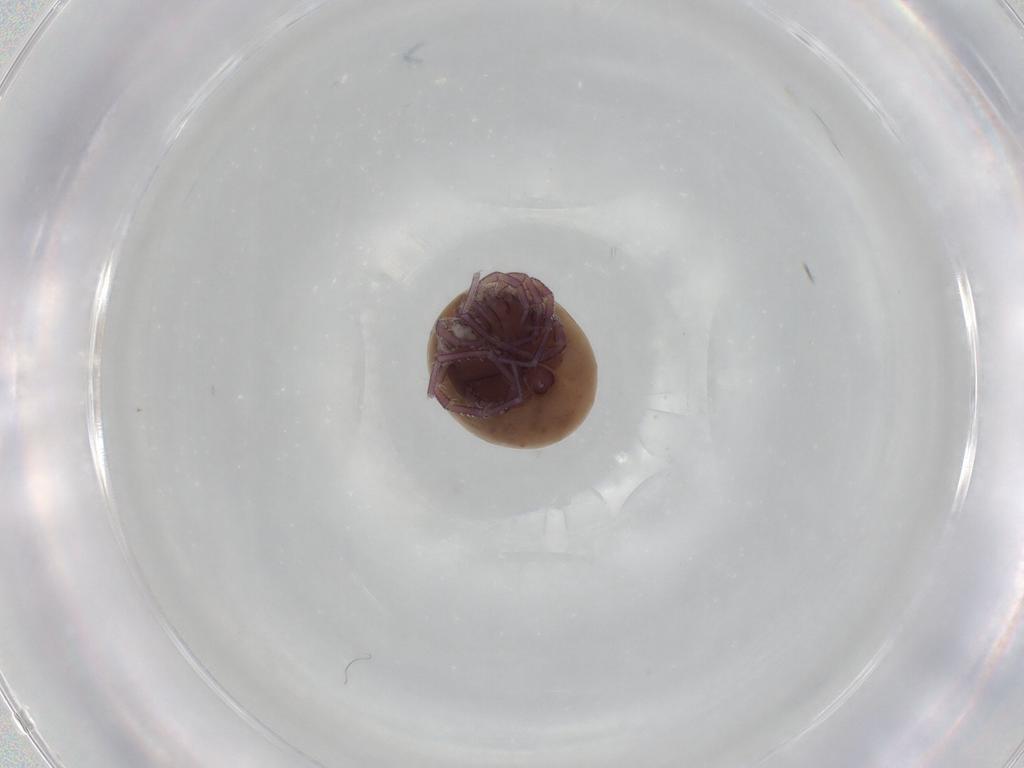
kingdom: Animalia
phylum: Arthropoda
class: Arachnida
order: Trombidiformes
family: Lebertiidae
